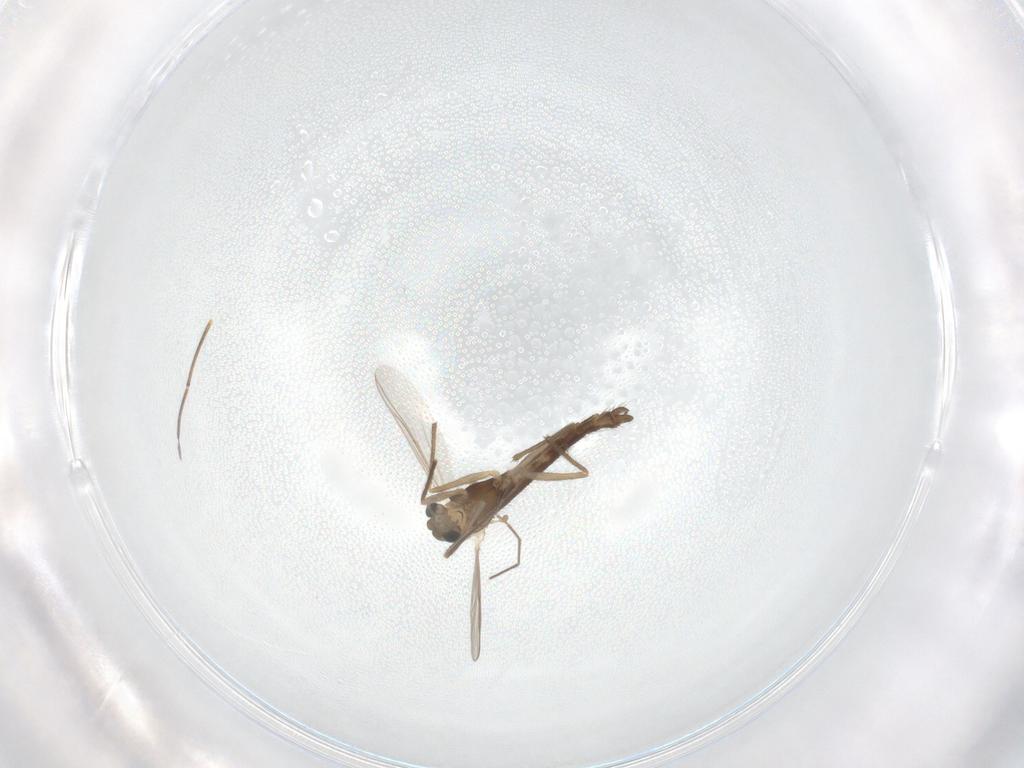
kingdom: Animalia
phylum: Arthropoda
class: Insecta
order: Diptera
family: Chironomidae
